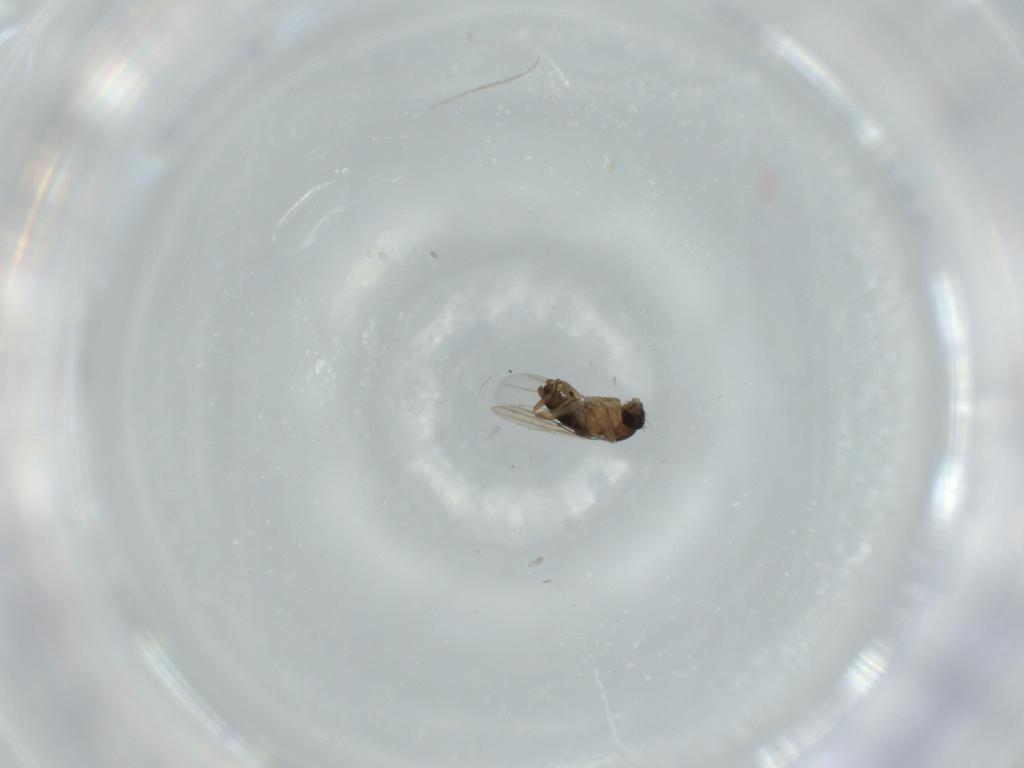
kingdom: Animalia
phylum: Arthropoda
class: Insecta
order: Diptera
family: Phoridae
